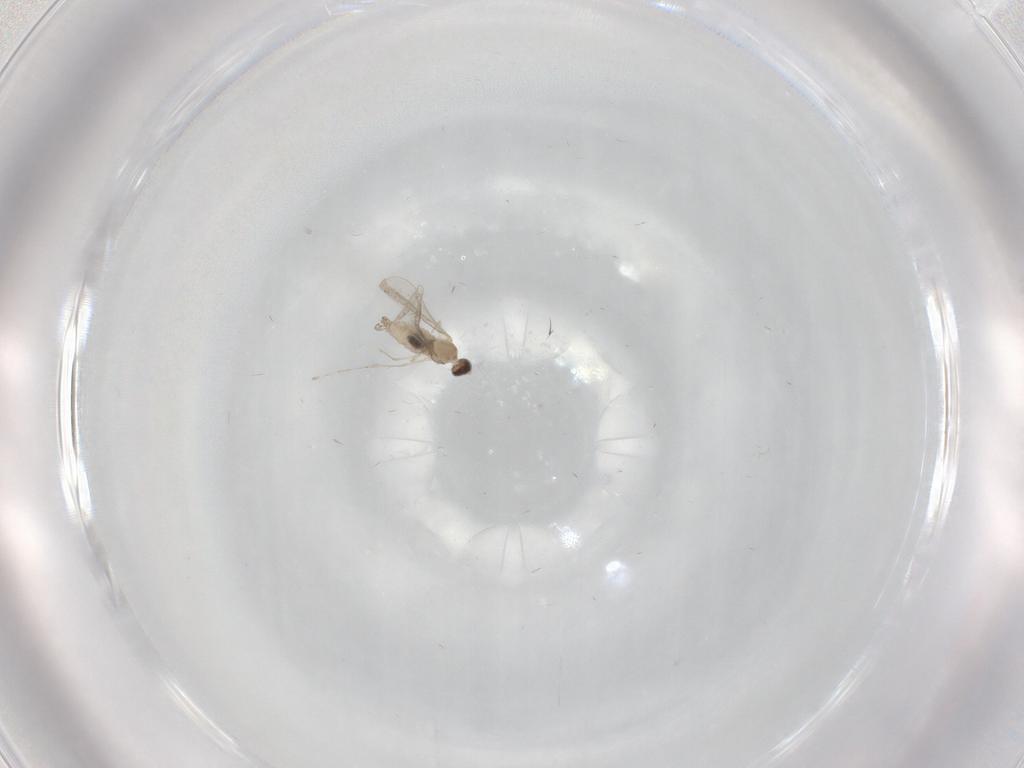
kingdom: Animalia
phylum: Arthropoda
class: Insecta
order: Diptera
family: Cecidomyiidae
